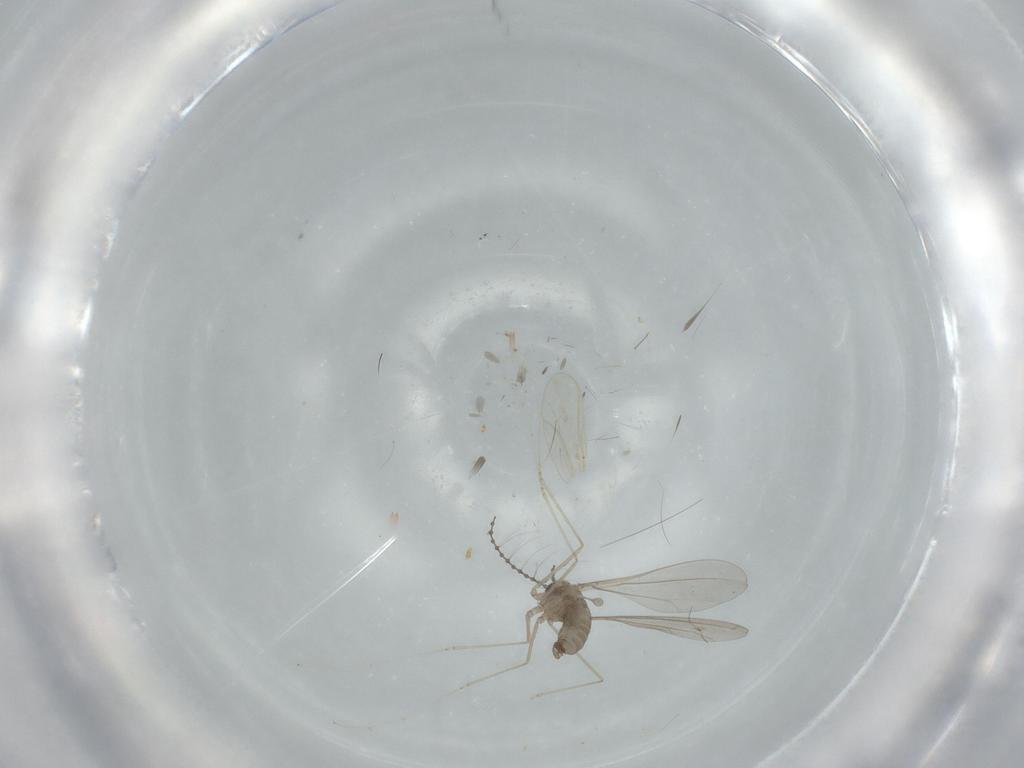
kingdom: Animalia
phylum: Arthropoda
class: Insecta
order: Diptera
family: Cecidomyiidae
